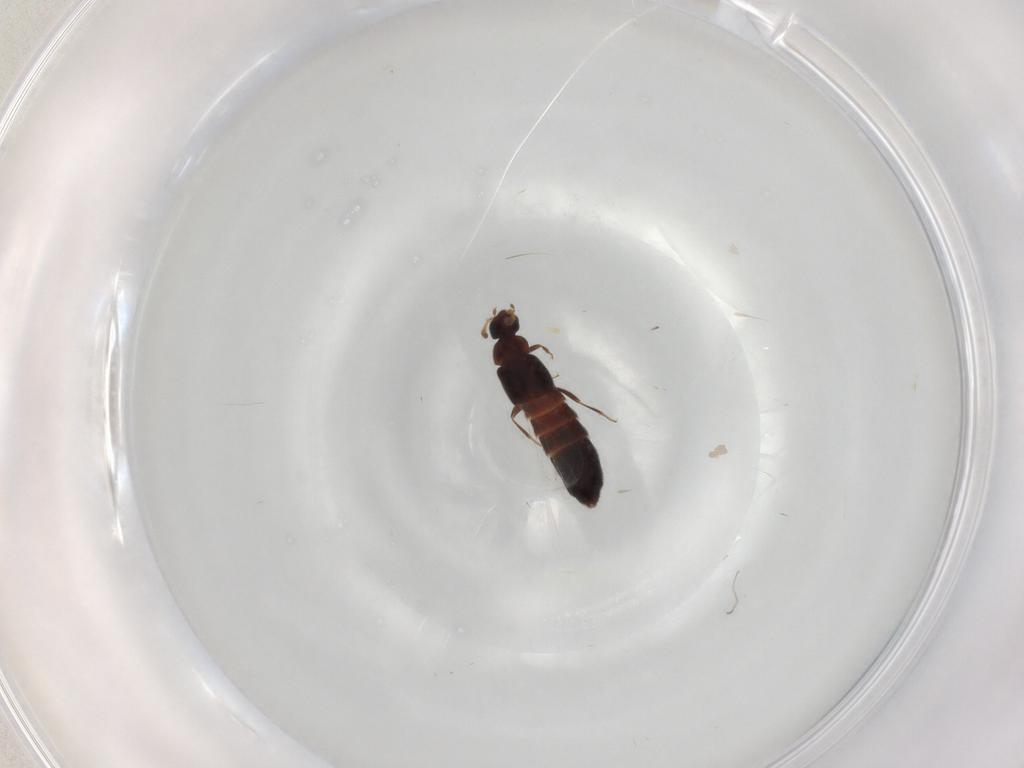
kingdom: Animalia
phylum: Arthropoda
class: Insecta
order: Coleoptera
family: Staphylinidae
